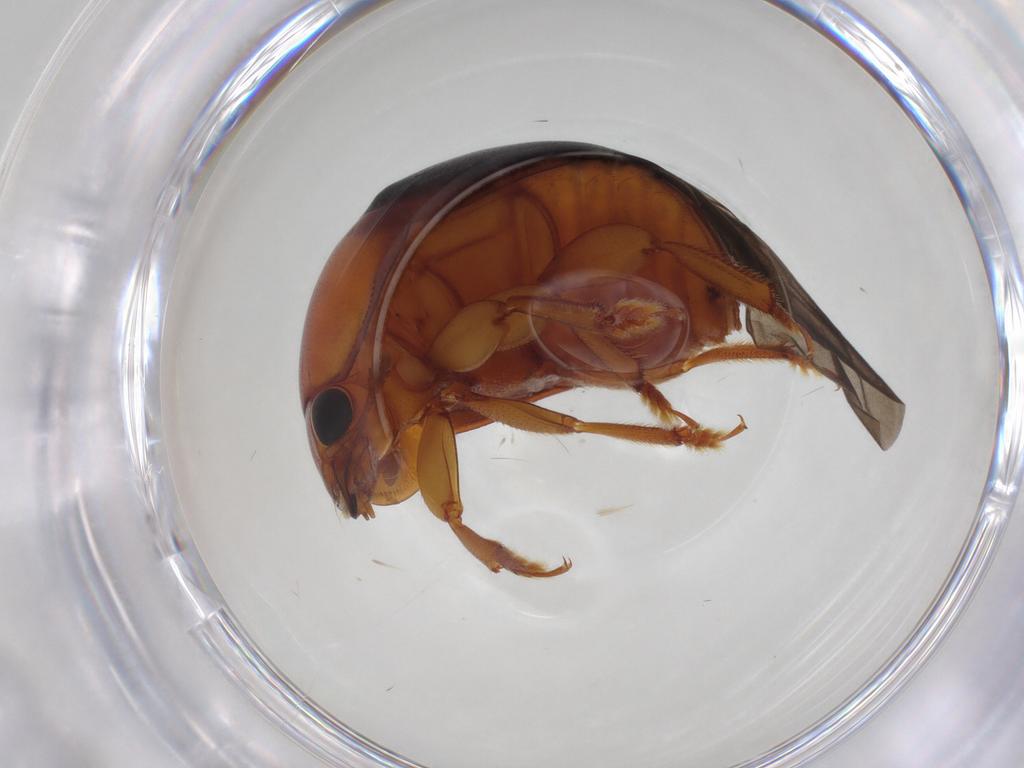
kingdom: Animalia
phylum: Arthropoda
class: Insecta
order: Coleoptera
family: Nitidulidae
